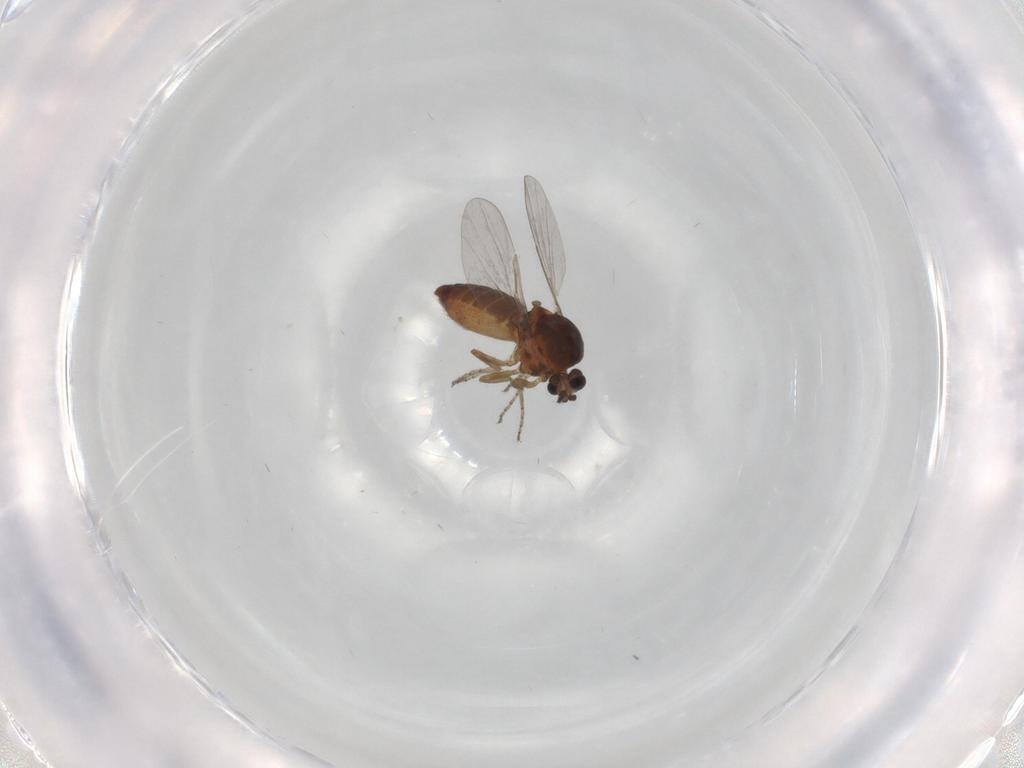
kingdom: Animalia
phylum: Arthropoda
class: Insecta
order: Diptera
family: Ceratopogonidae
